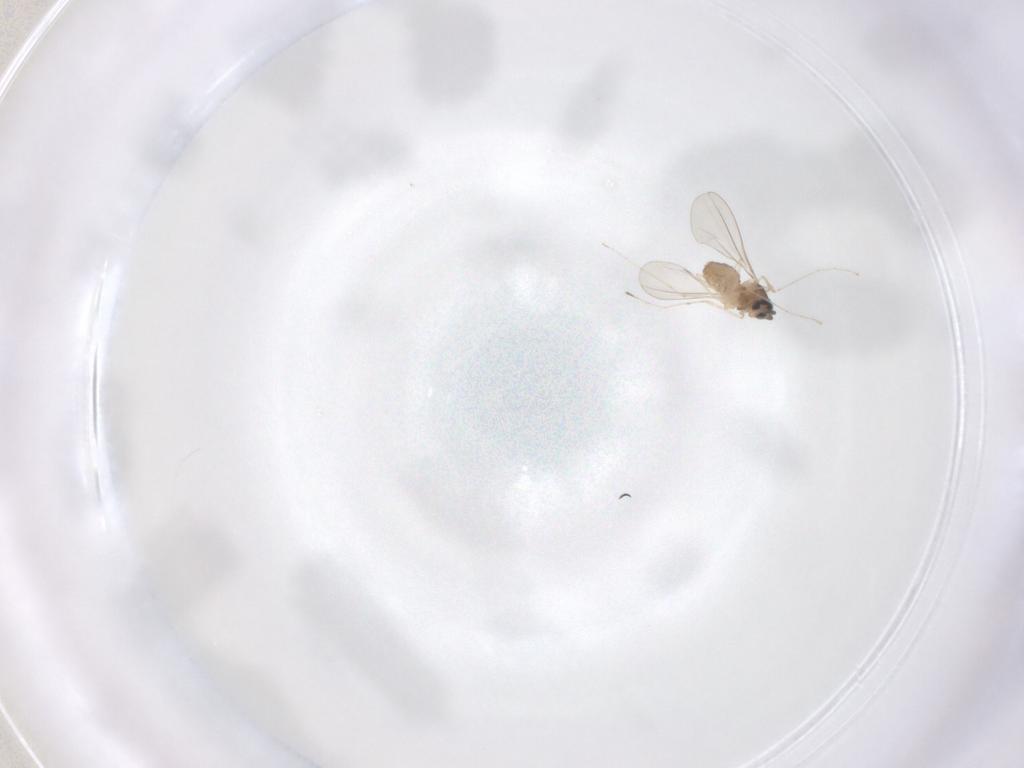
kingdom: Animalia
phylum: Arthropoda
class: Insecta
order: Diptera
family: Cecidomyiidae
